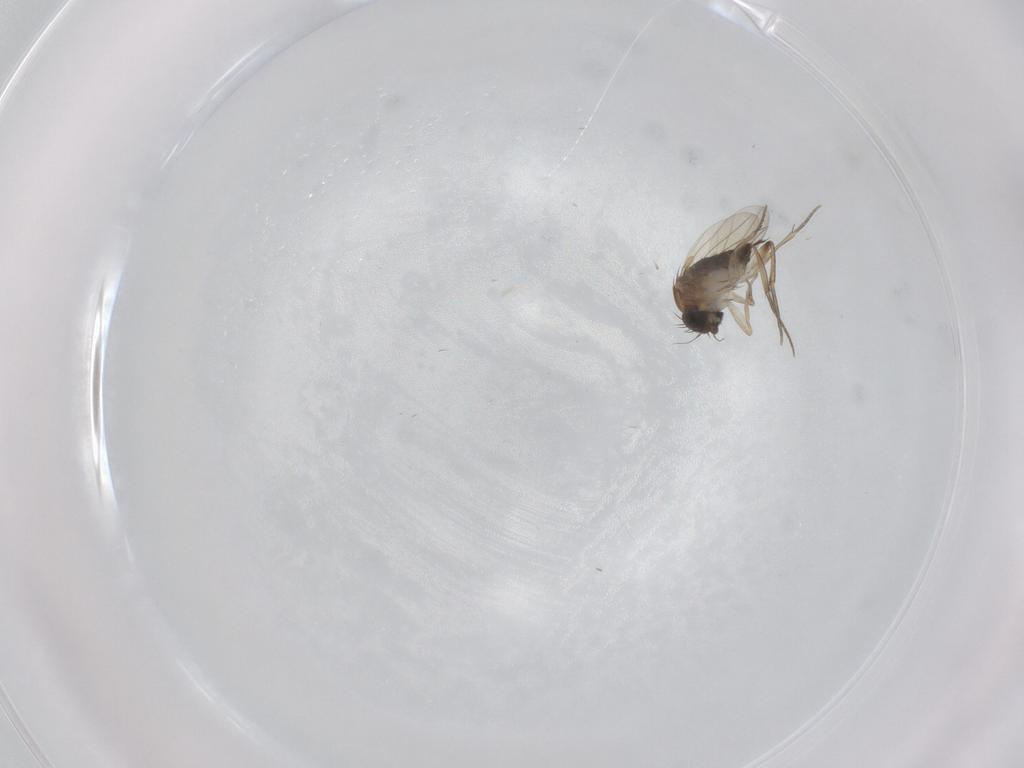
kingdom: Animalia
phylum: Arthropoda
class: Insecta
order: Diptera
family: Phoridae
